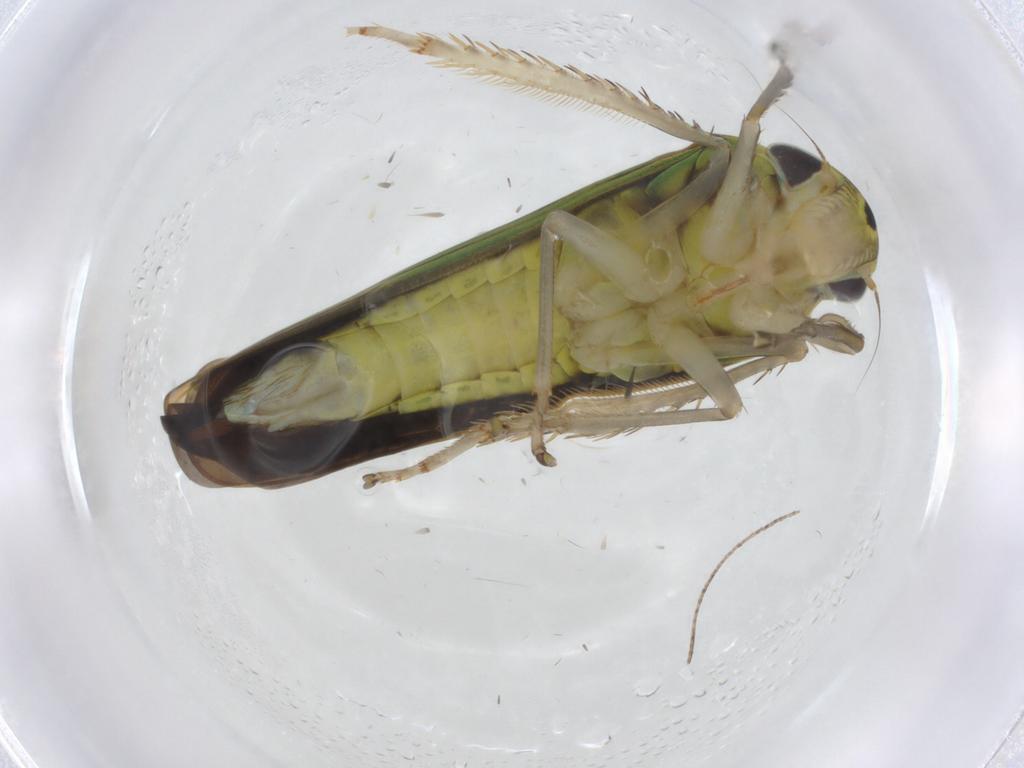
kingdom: Animalia
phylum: Arthropoda
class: Insecta
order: Hemiptera
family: Cicadellidae
